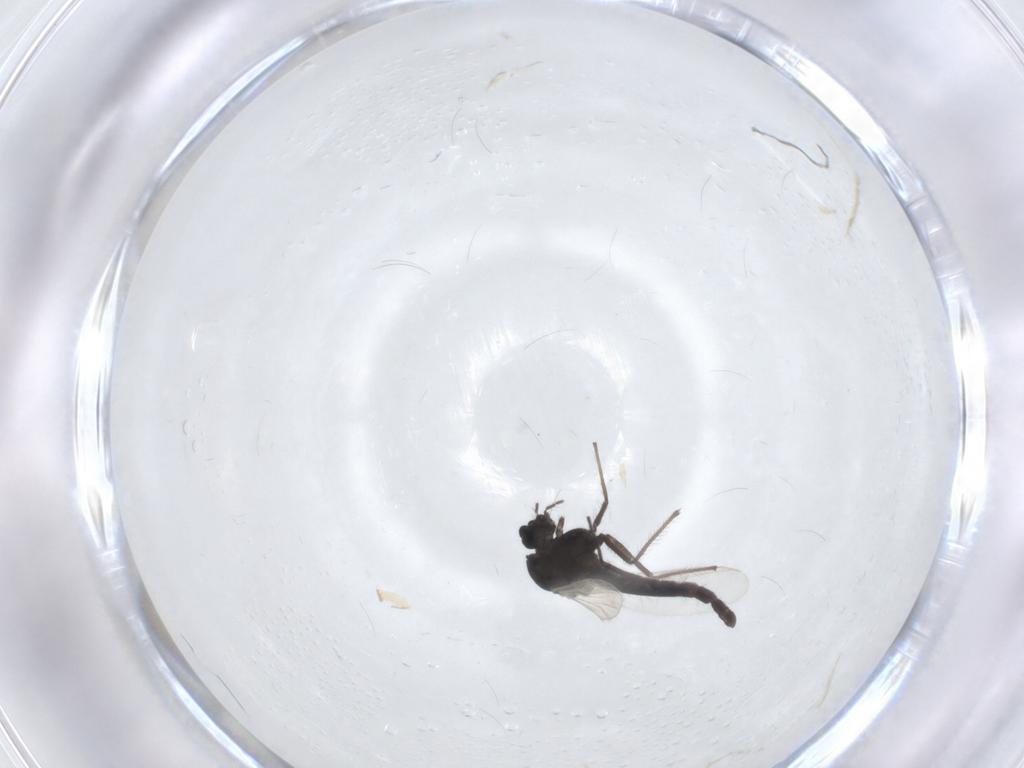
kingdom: Animalia
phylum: Arthropoda
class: Insecta
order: Diptera
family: Chironomidae
